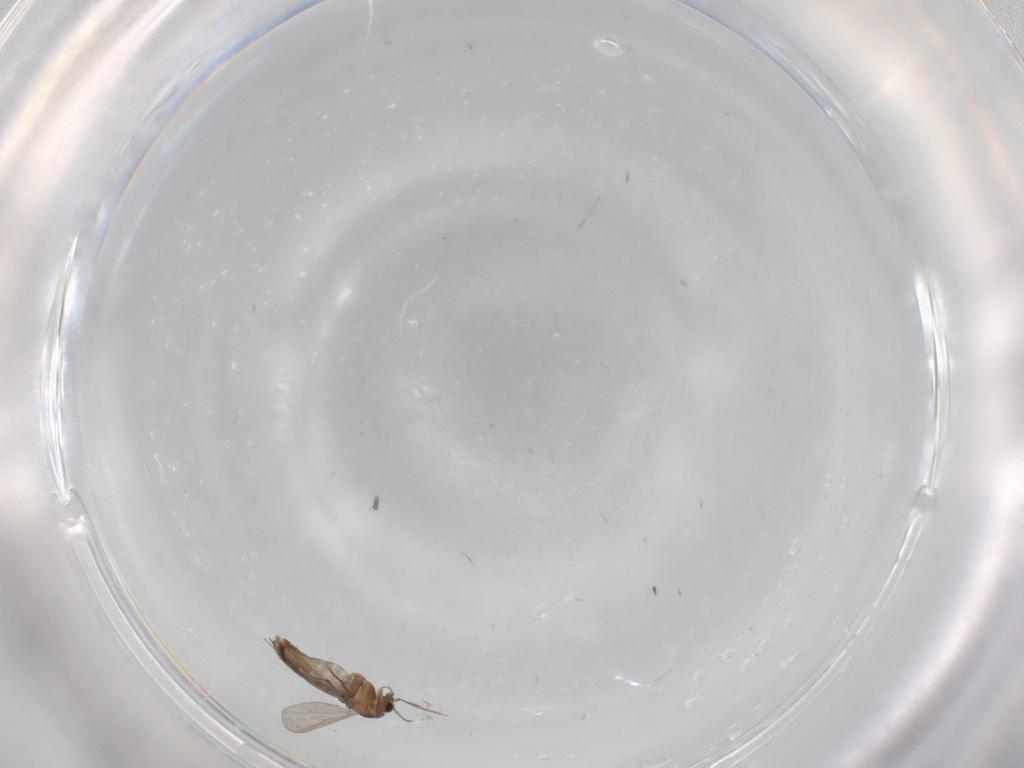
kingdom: Animalia
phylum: Arthropoda
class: Insecta
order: Diptera
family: Chironomidae
